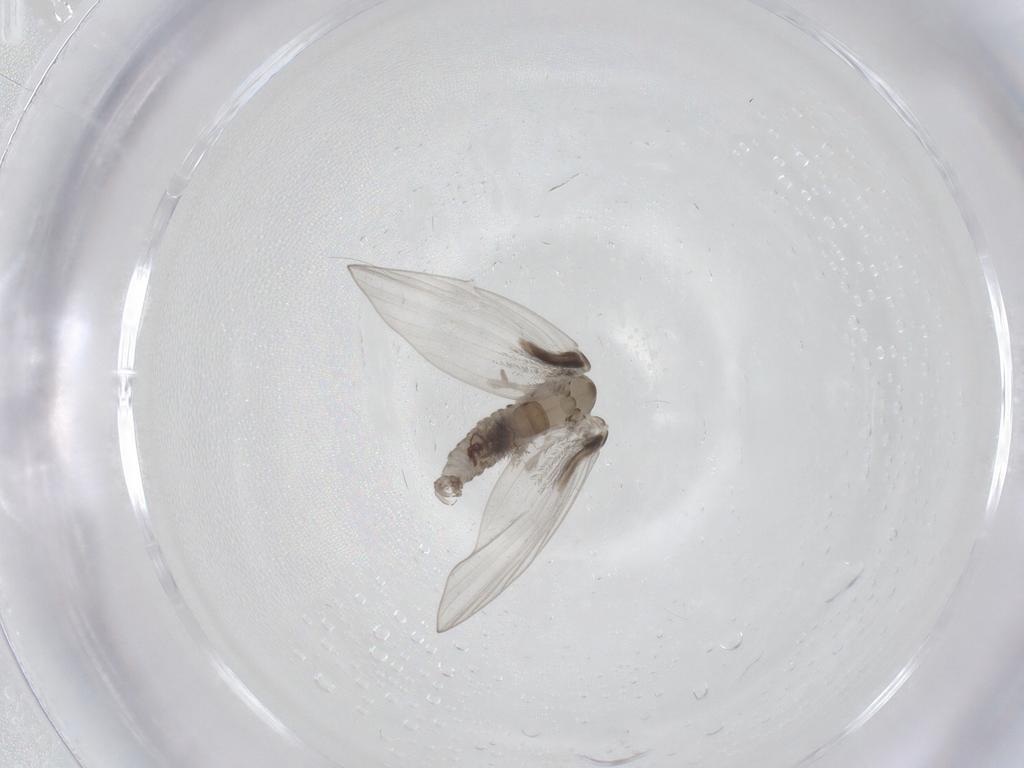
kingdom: Animalia
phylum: Arthropoda
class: Insecta
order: Diptera
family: Psychodidae
